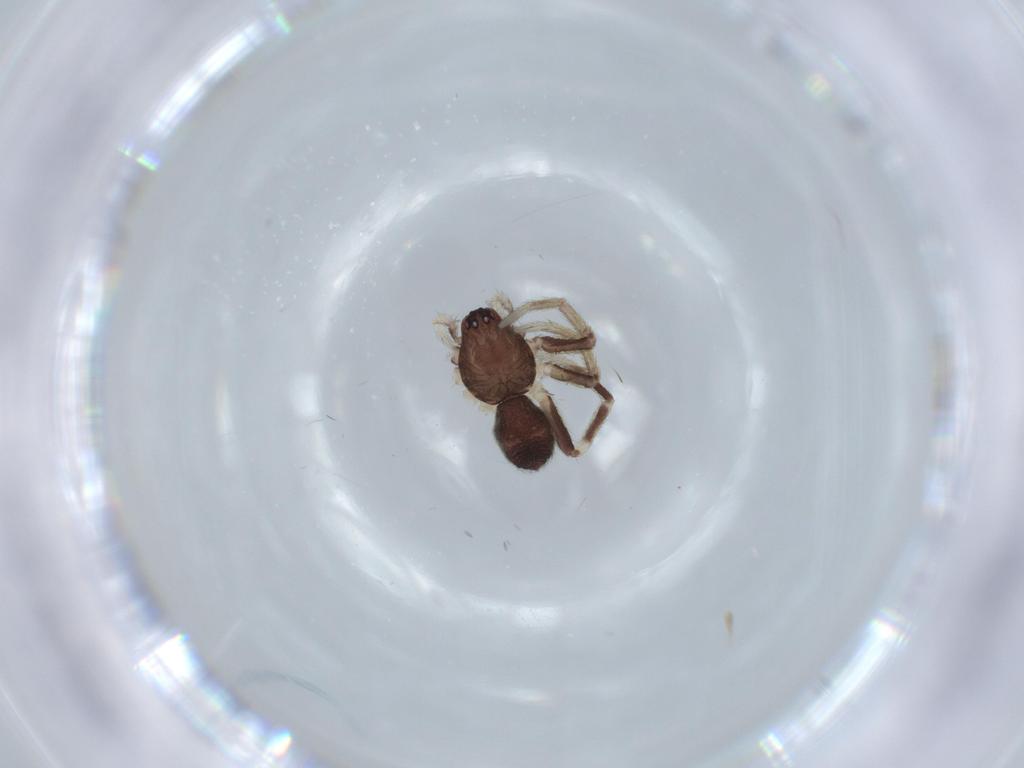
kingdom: Animalia
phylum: Arthropoda
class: Arachnida
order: Araneae
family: Corinnidae
